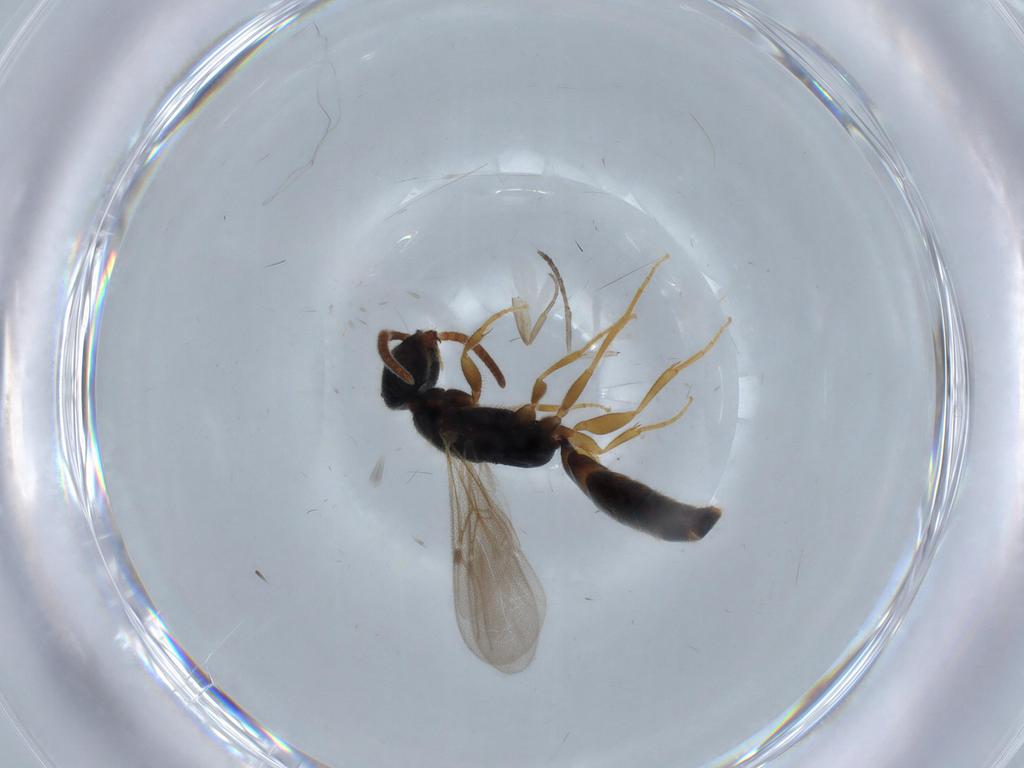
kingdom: Animalia
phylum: Arthropoda
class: Insecta
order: Hymenoptera
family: Bethylidae
